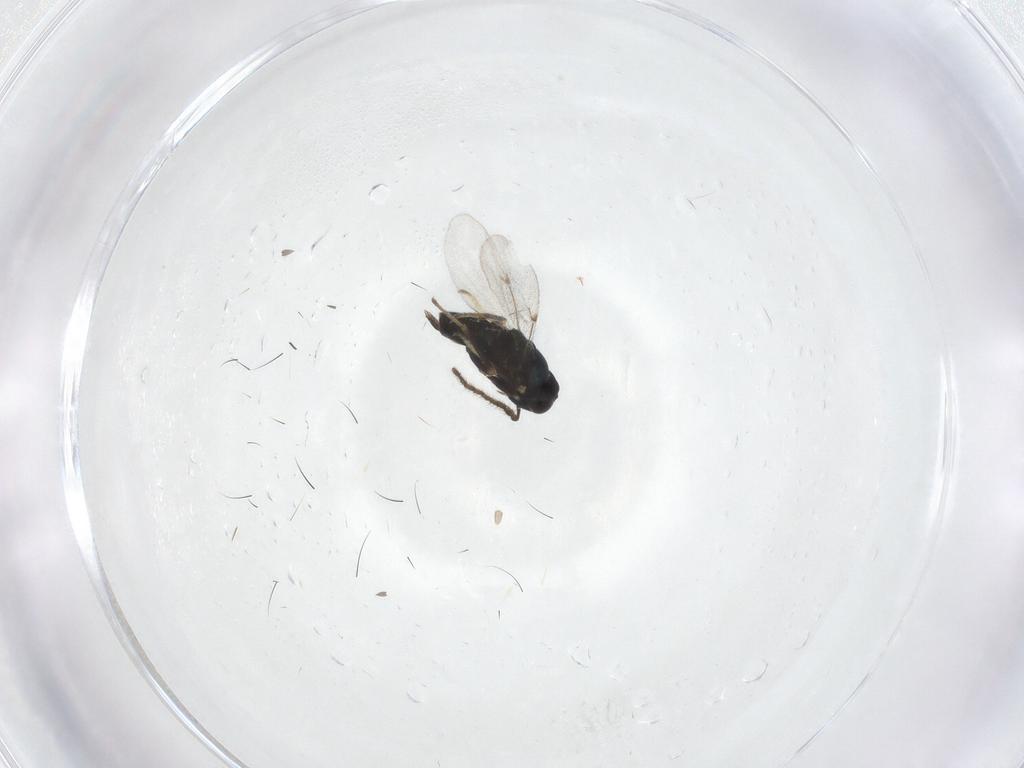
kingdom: Animalia
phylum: Arthropoda
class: Insecta
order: Hymenoptera
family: Encyrtidae
